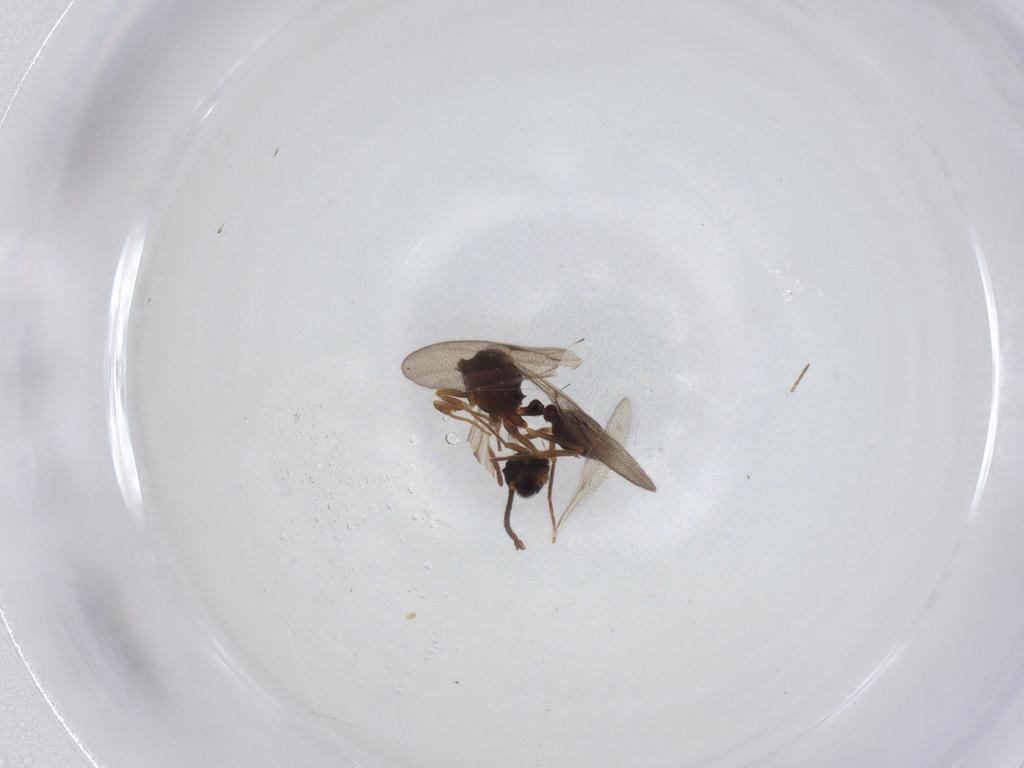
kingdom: Animalia
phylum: Arthropoda
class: Insecta
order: Hymenoptera
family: Formicidae
